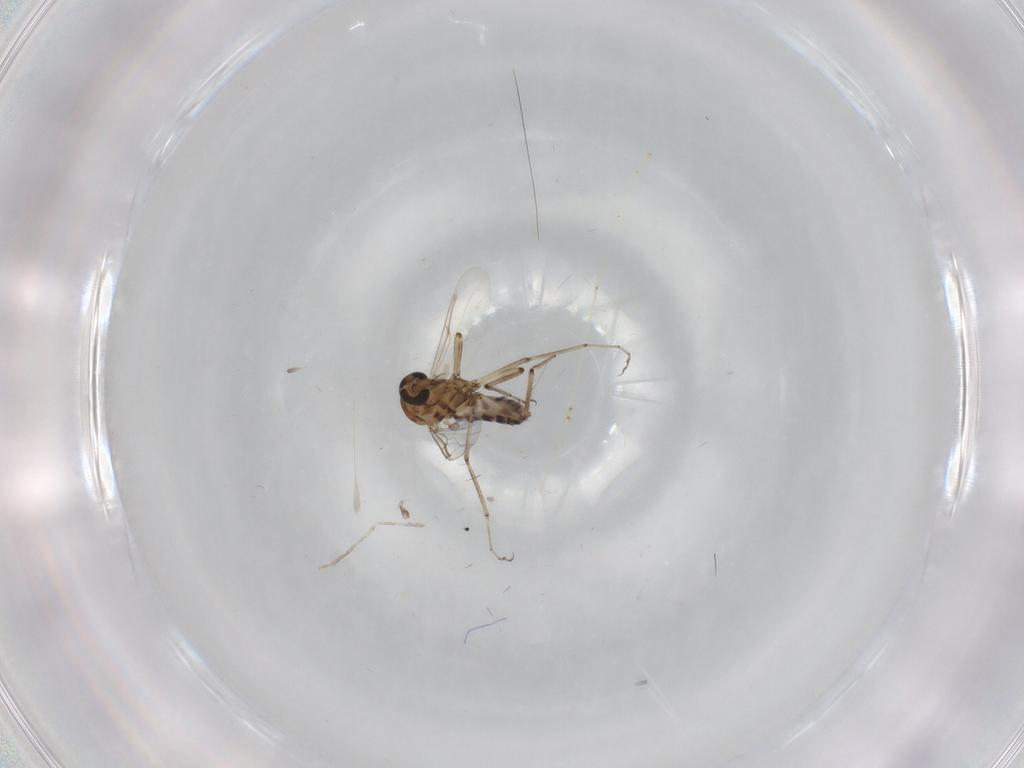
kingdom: Animalia
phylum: Arthropoda
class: Insecta
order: Diptera
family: Ceratopogonidae
